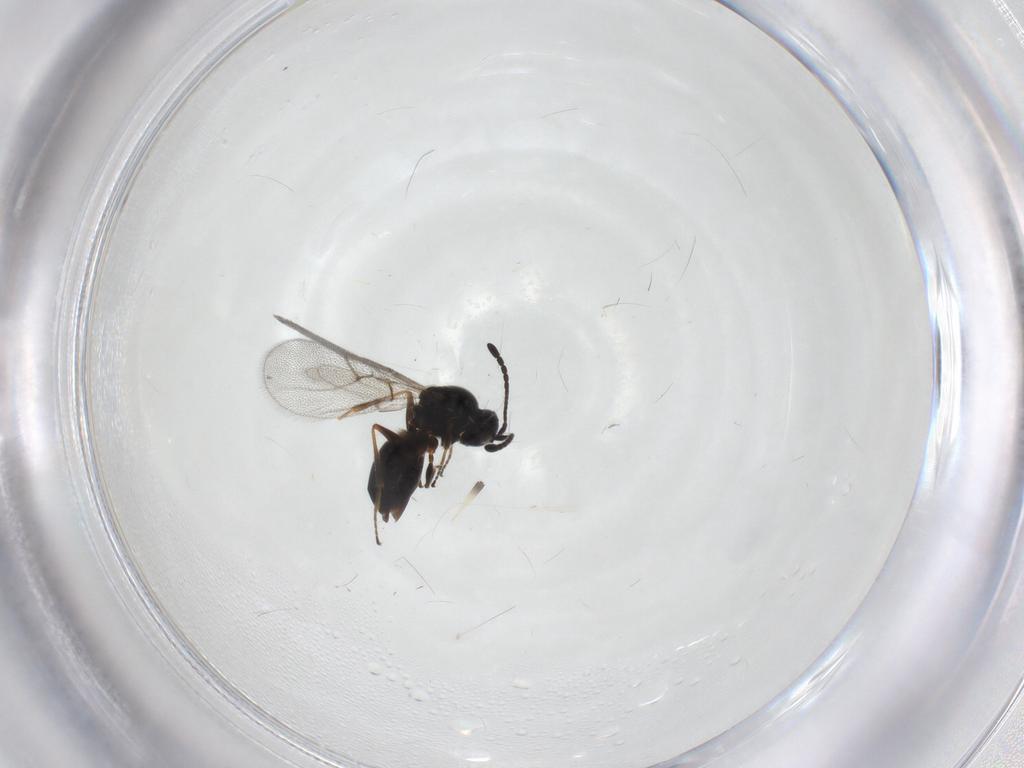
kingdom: Animalia
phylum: Arthropoda
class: Insecta
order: Hymenoptera
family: Figitidae
